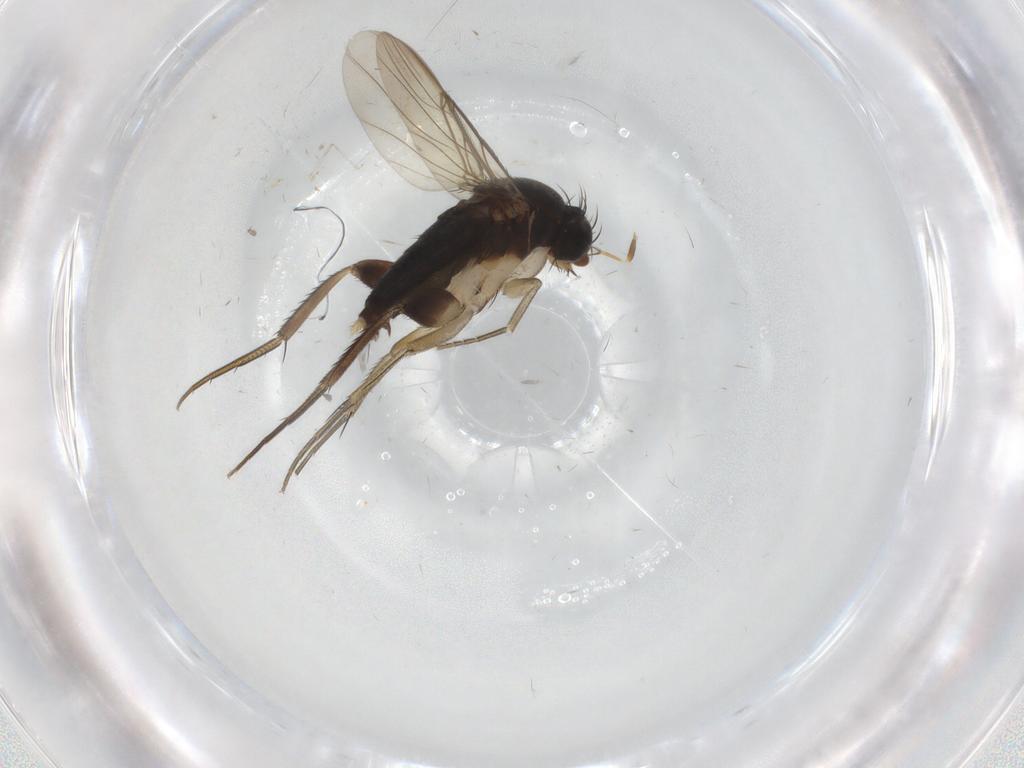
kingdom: Animalia
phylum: Arthropoda
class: Insecta
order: Diptera
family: Phoridae
